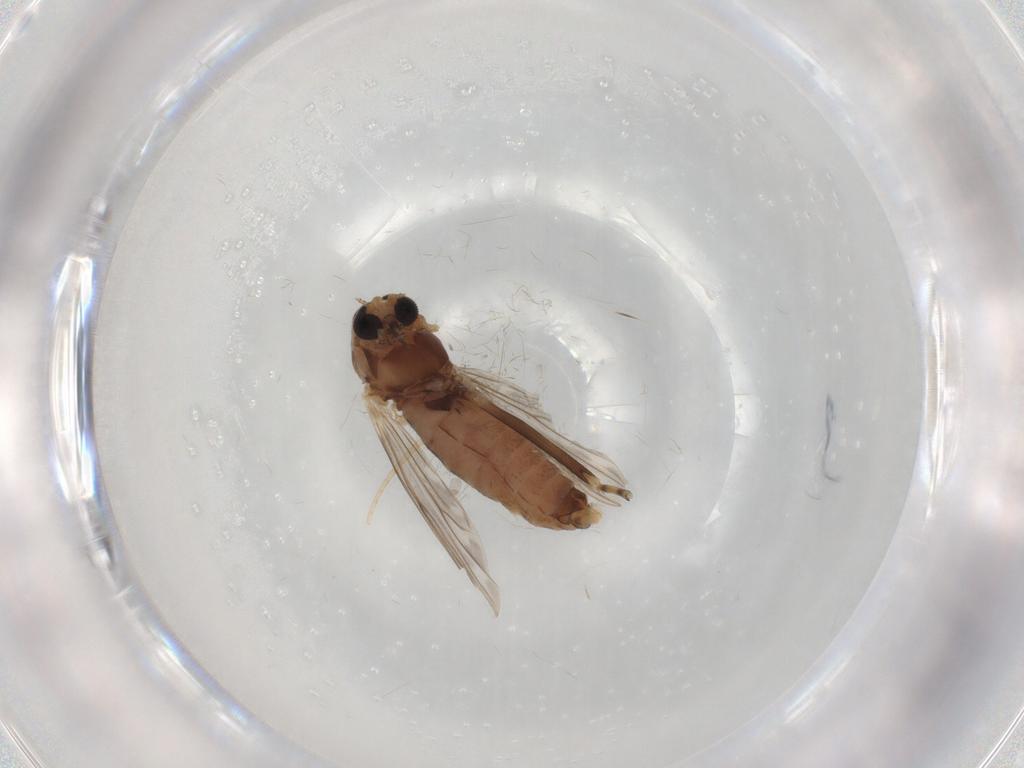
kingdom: Animalia
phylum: Arthropoda
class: Insecta
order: Diptera
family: Chironomidae
